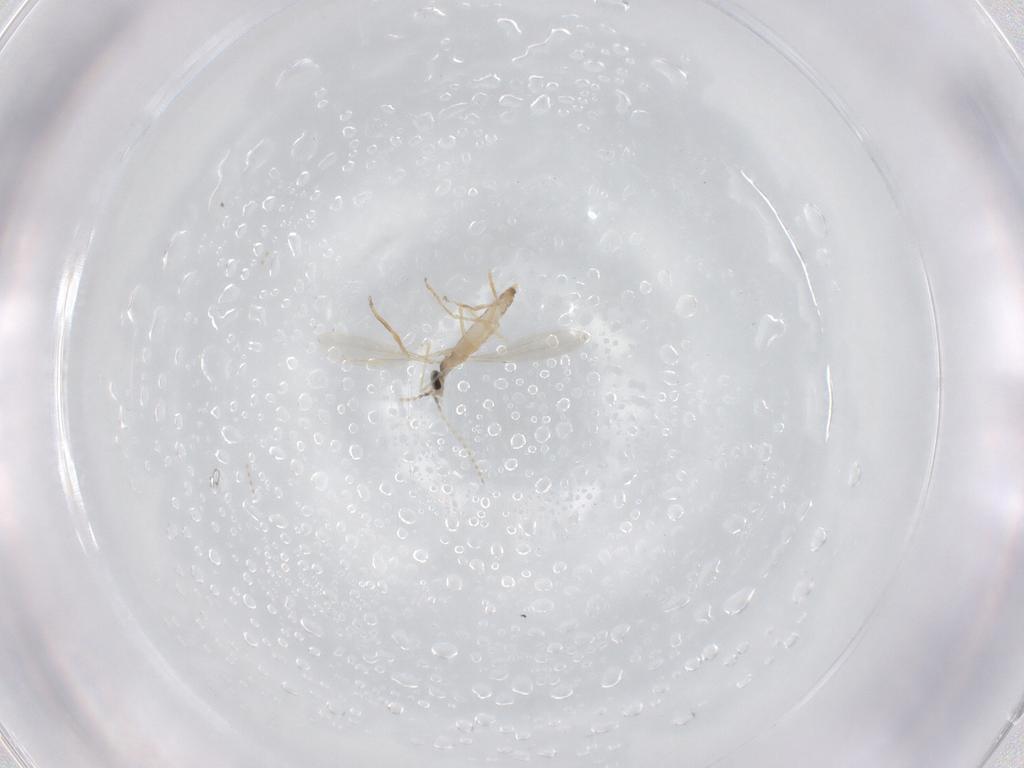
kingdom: Animalia
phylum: Arthropoda
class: Insecta
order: Diptera
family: Cecidomyiidae
